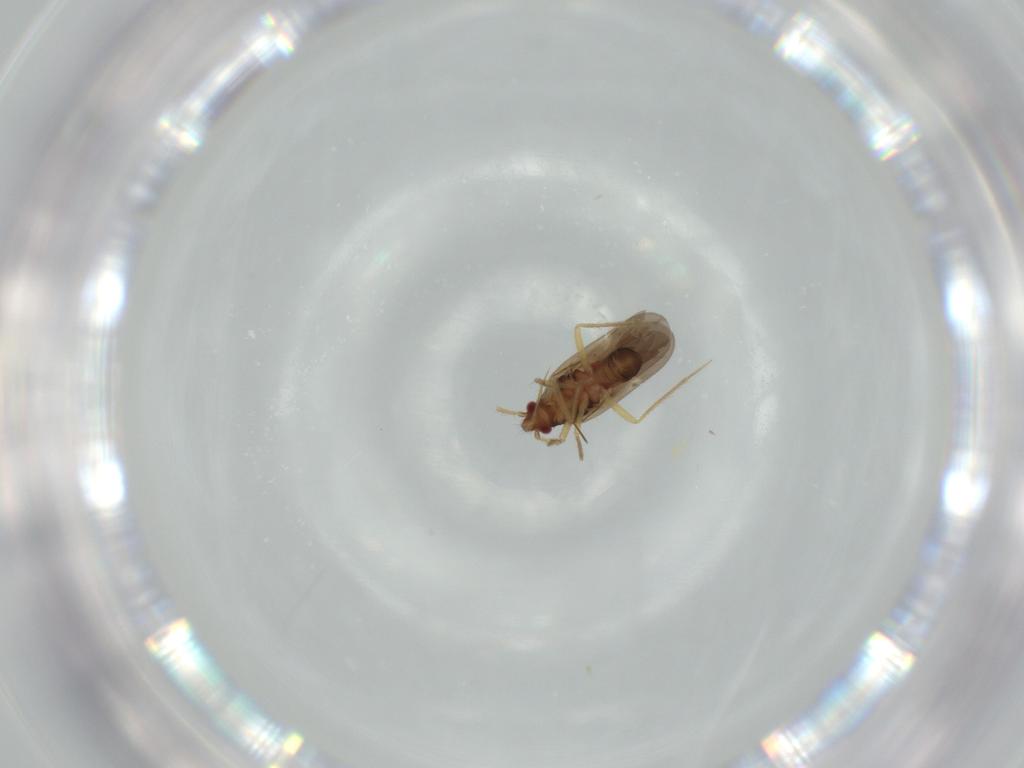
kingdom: Animalia
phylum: Arthropoda
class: Insecta
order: Hemiptera
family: Ceratocombidae
